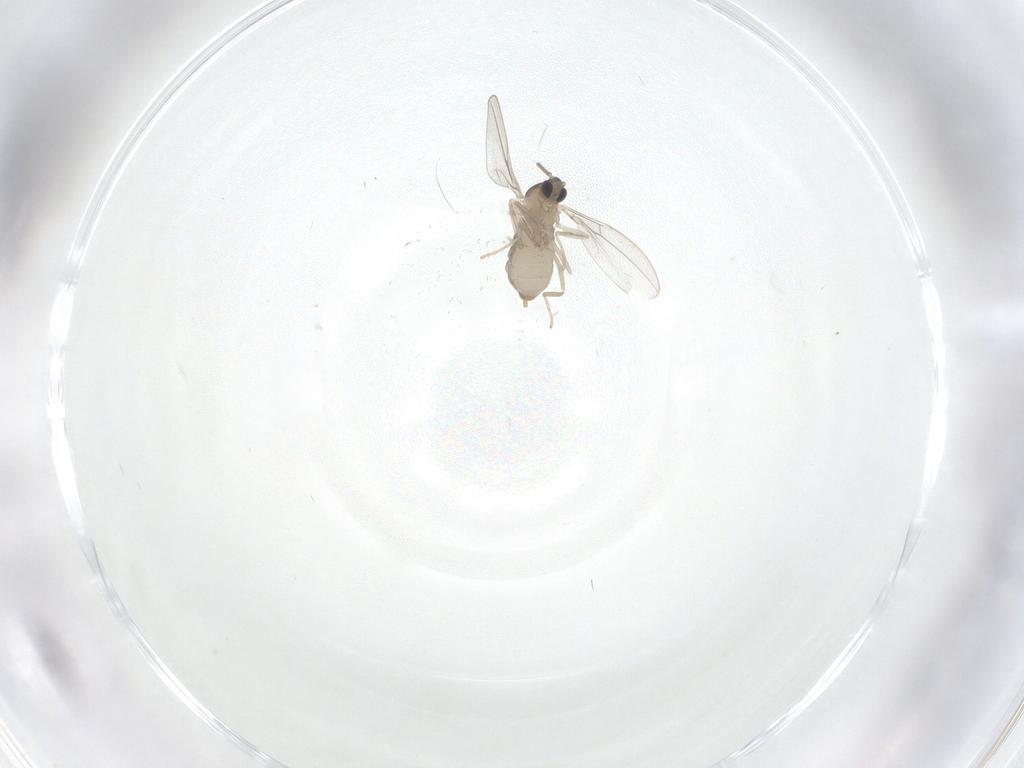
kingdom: Animalia
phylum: Arthropoda
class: Insecta
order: Diptera
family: Cecidomyiidae
